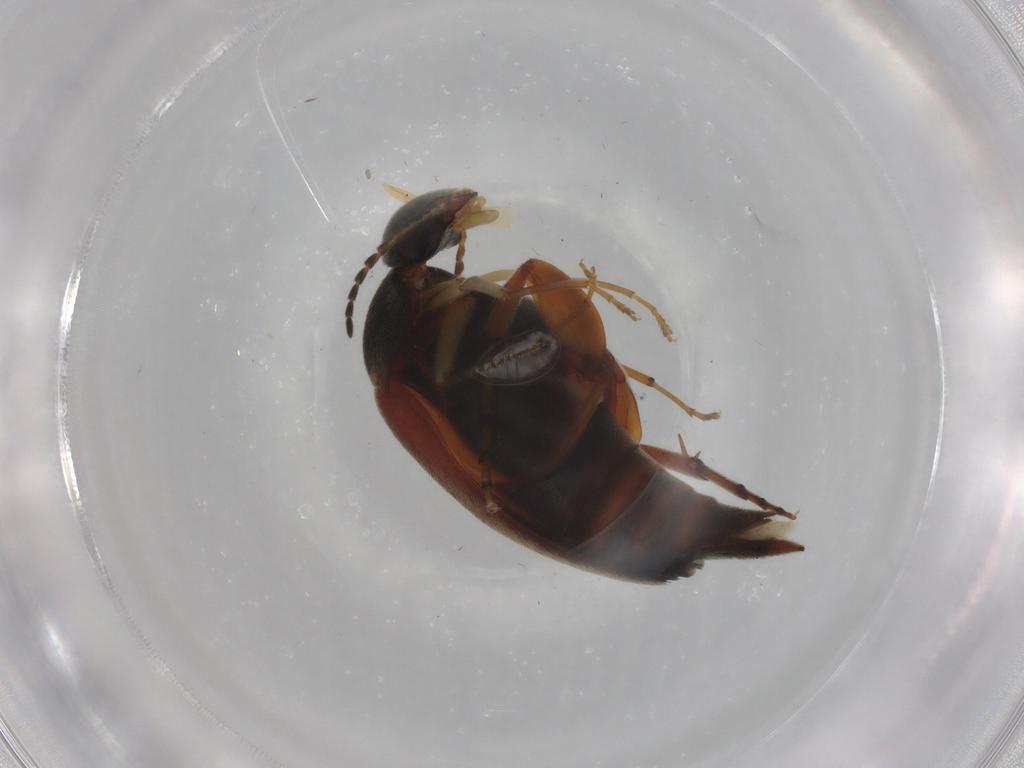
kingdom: Animalia
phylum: Arthropoda
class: Insecta
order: Coleoptera
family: Mordellidae
